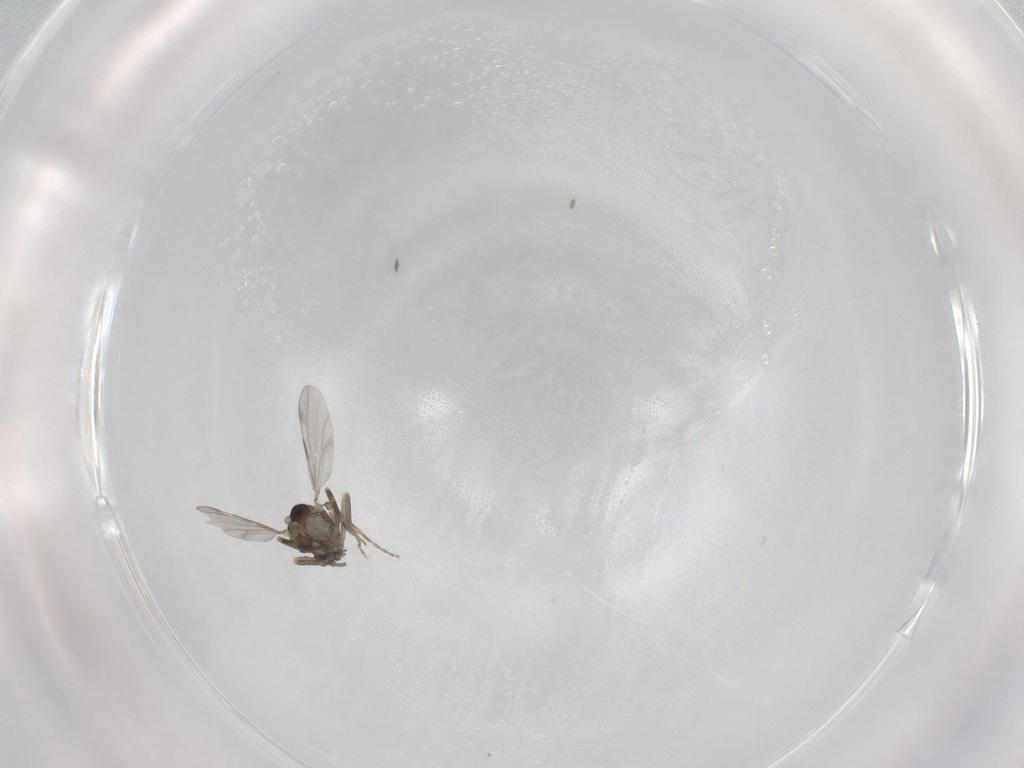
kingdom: Animalia
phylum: Arthropoda
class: Insecta
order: Diptera
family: Ceratopogonidae
